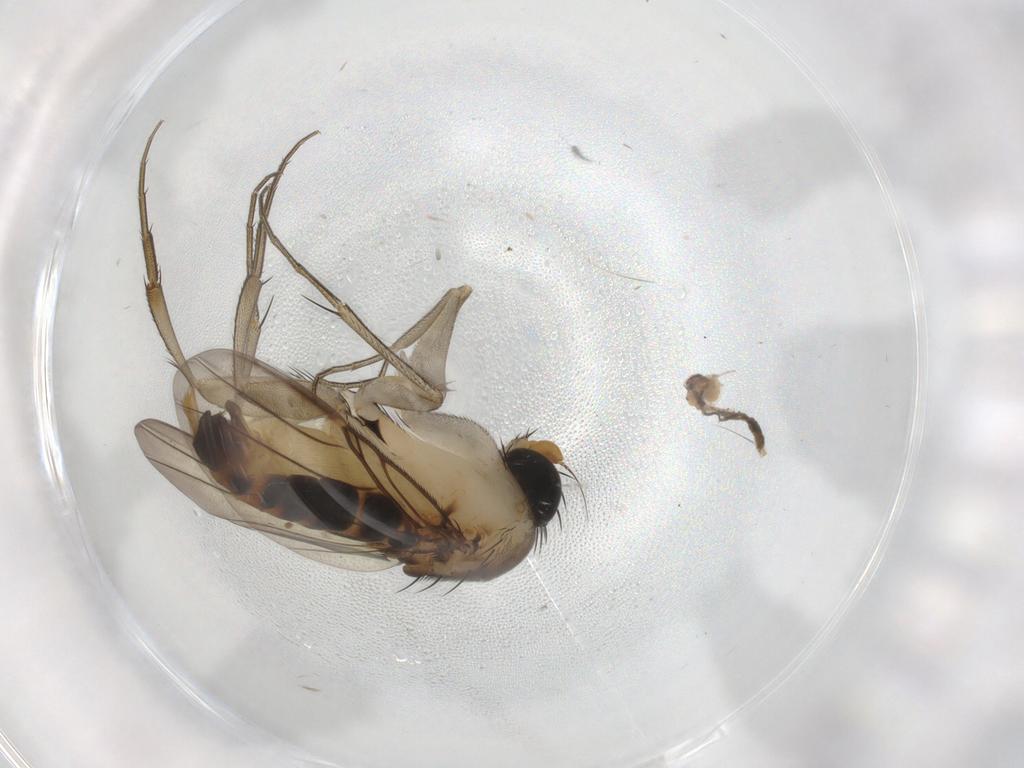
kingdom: Animalia
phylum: Arthropoda
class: Insecta
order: Diptera
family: Phoridae
